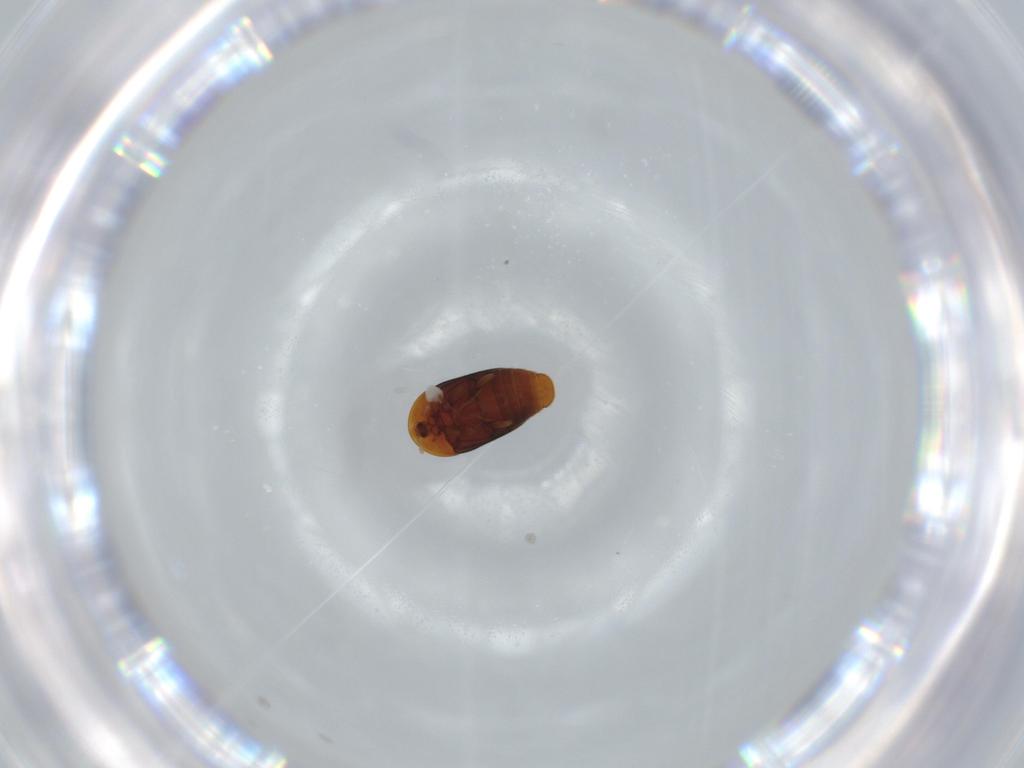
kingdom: Animalia
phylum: Arthropoda
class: Insecta
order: Coleoptera
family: Corylophidae
